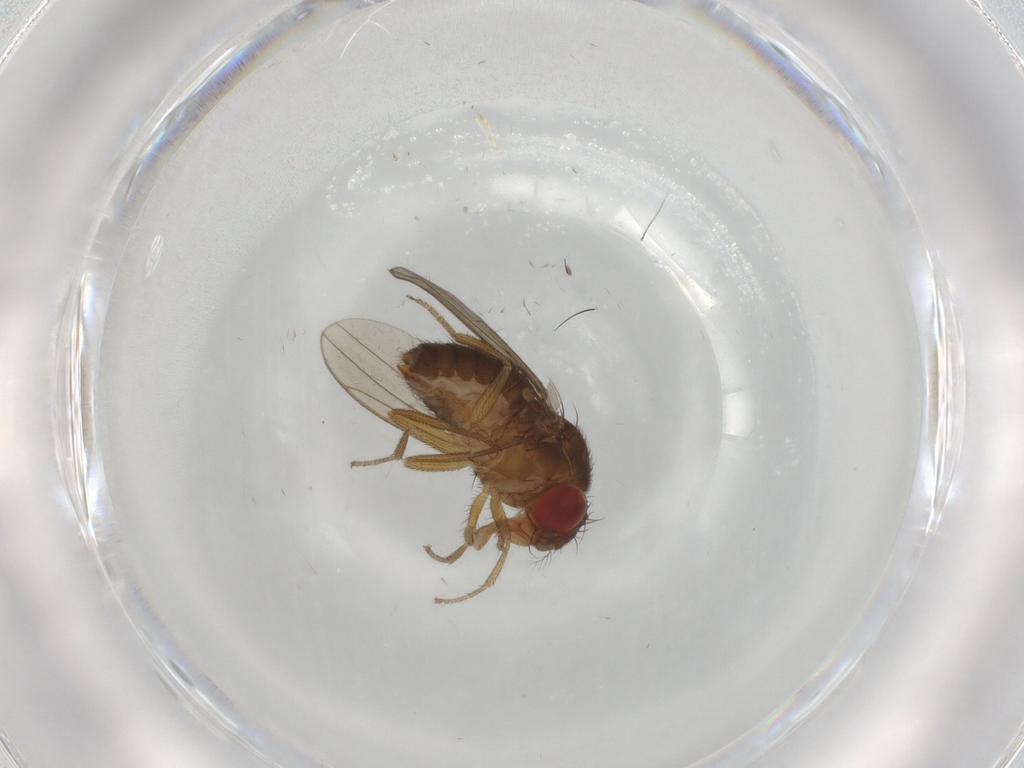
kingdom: Animalia
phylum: Arthropoda
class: Insecta
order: Diptera
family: Drosophilidae
